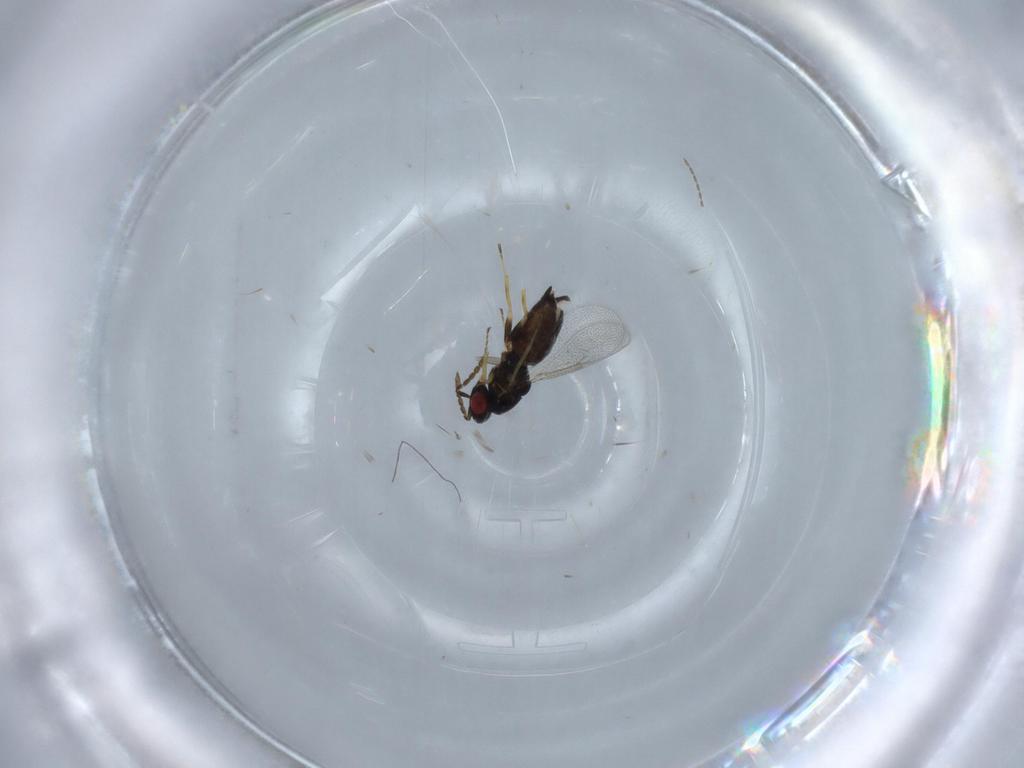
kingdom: Animalia
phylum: Arthropoda
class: Insecta
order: Hymenoptera
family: Eulophidae
